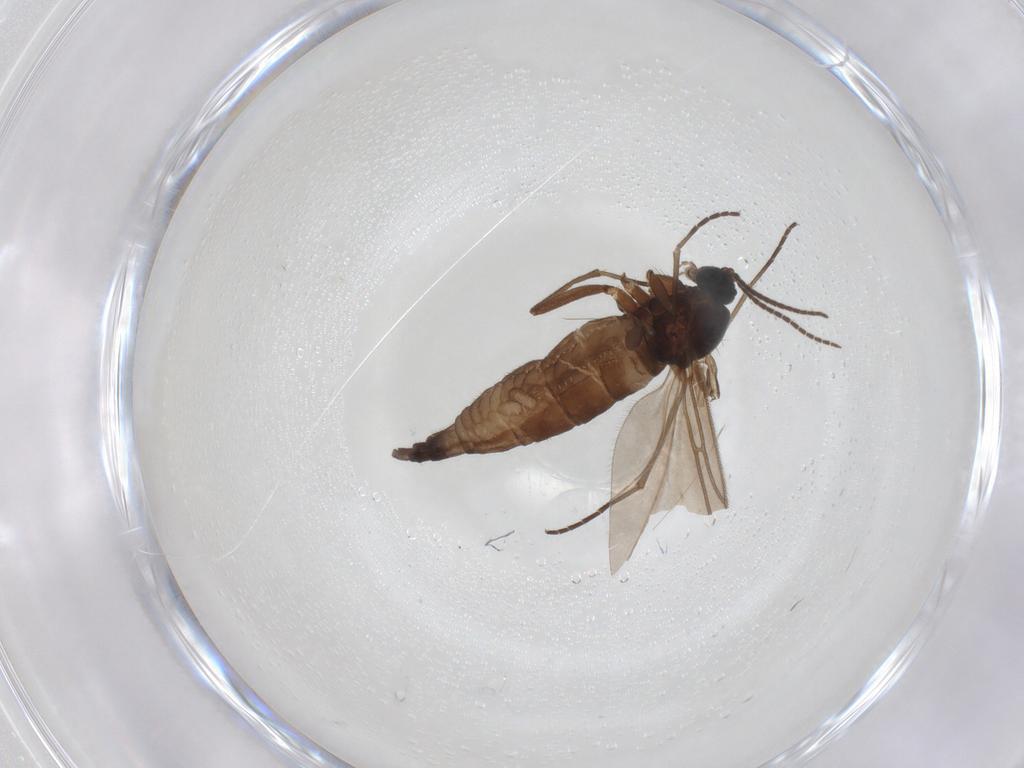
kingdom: Animalia
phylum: Arthropoda
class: Insecta
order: Diptera
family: Sciaridae
